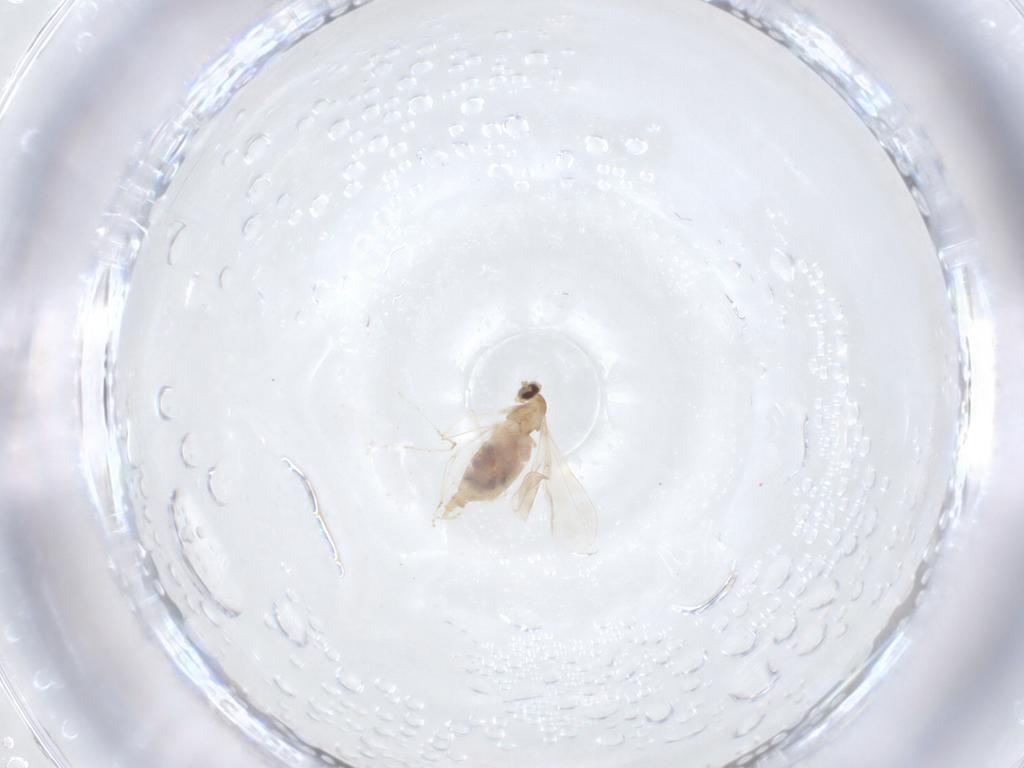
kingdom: Animalia
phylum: Arthropoda
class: Insecta
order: Diptera
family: Cecidomyiidae
